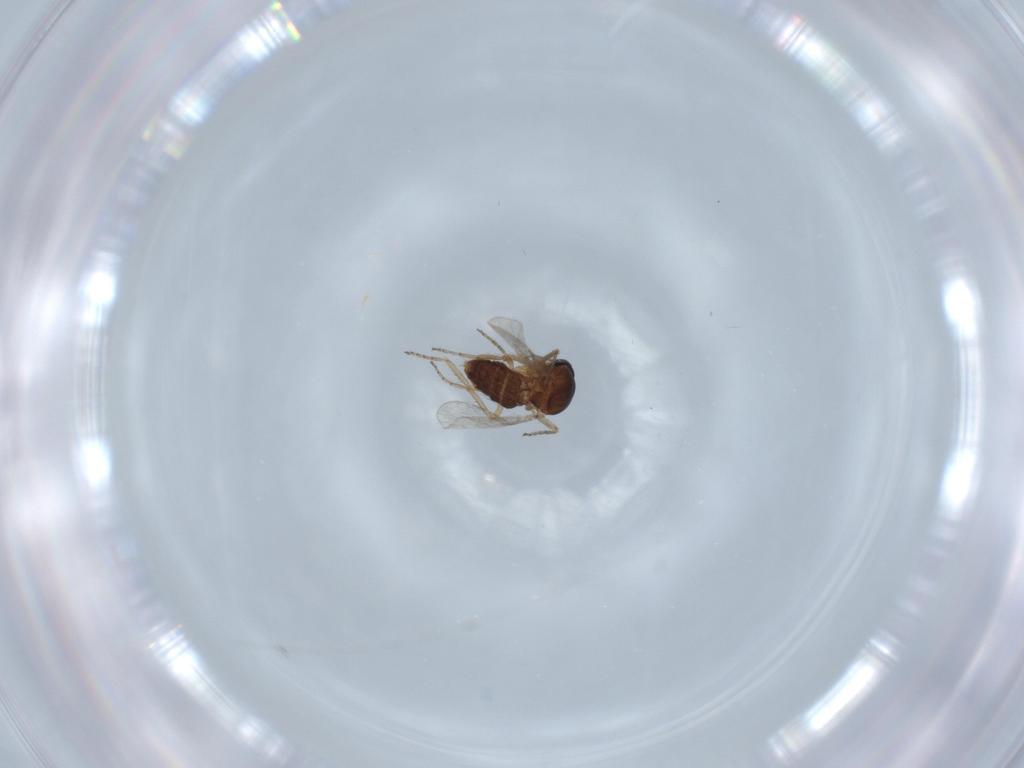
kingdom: Animalia
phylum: Arthropoda
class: Insecta
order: Diptera
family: Ceratopogonidae
